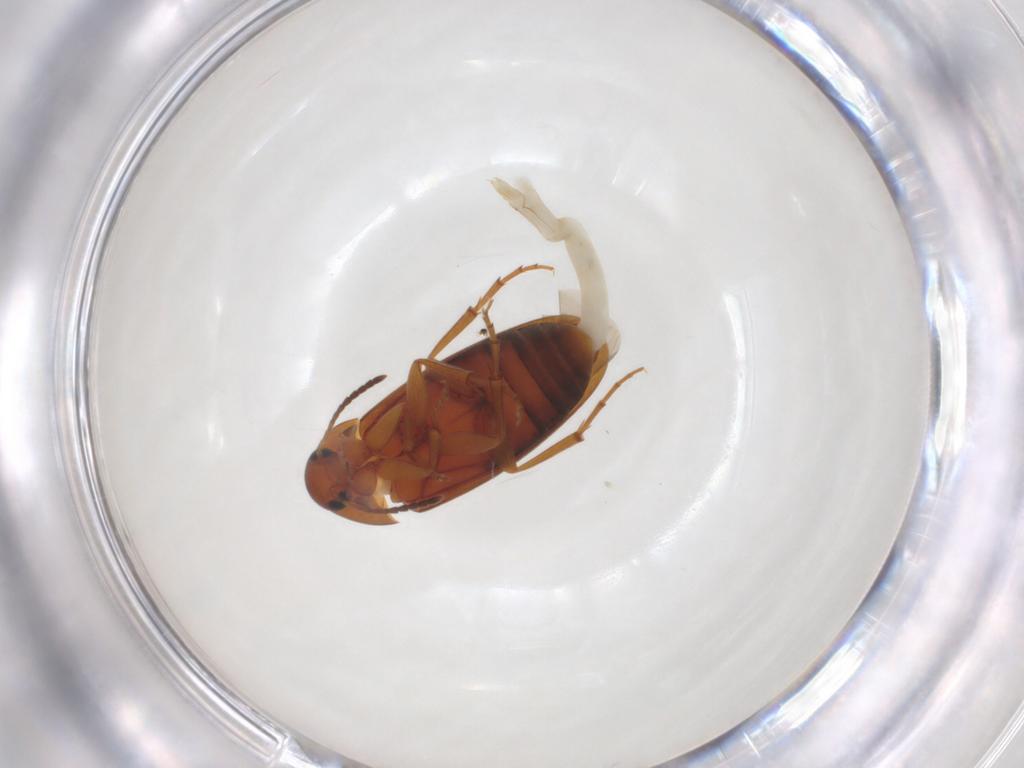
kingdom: Animalia
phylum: Arthropoda
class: Insecta
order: Coleoptera
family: Scraptiidae
